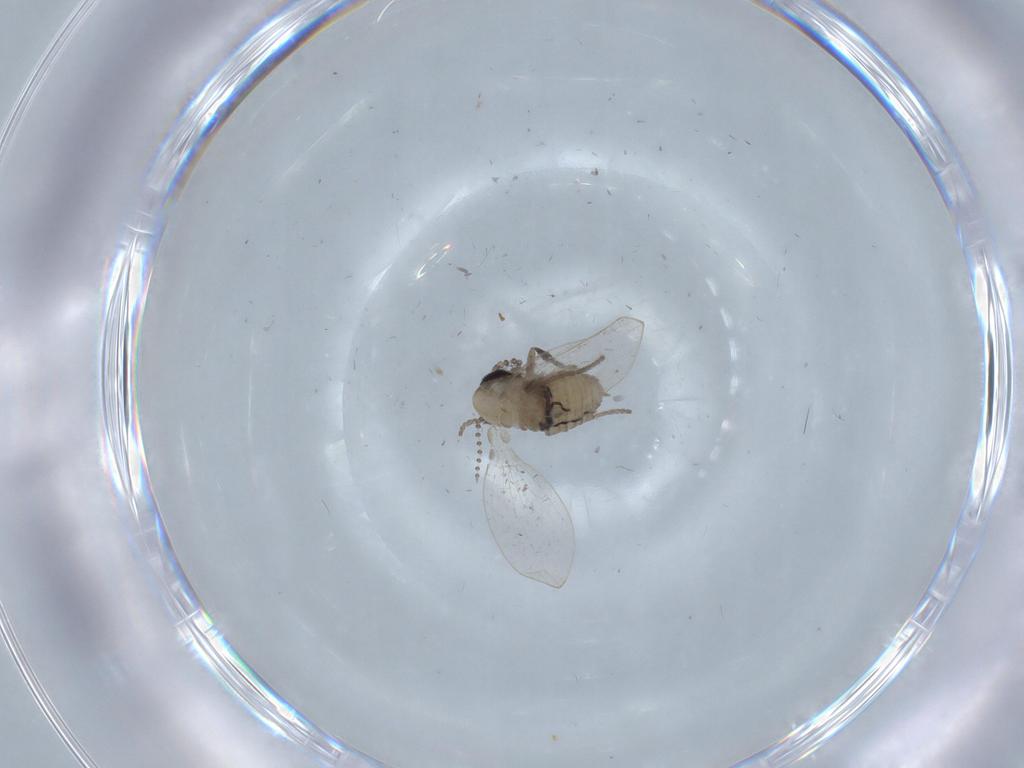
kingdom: Animalia
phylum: Arthropoda
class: Insecta
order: Diptera
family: Psychodidae
